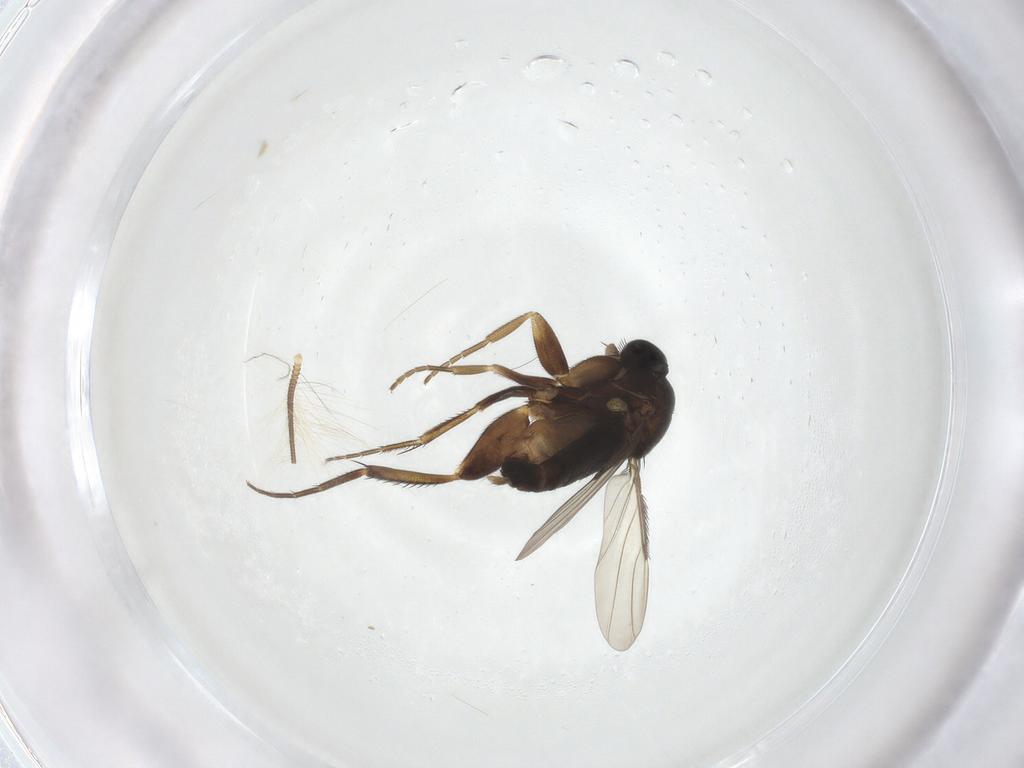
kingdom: Animalia
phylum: Arthropoda
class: Insecta
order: Diptera
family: Phoridae
